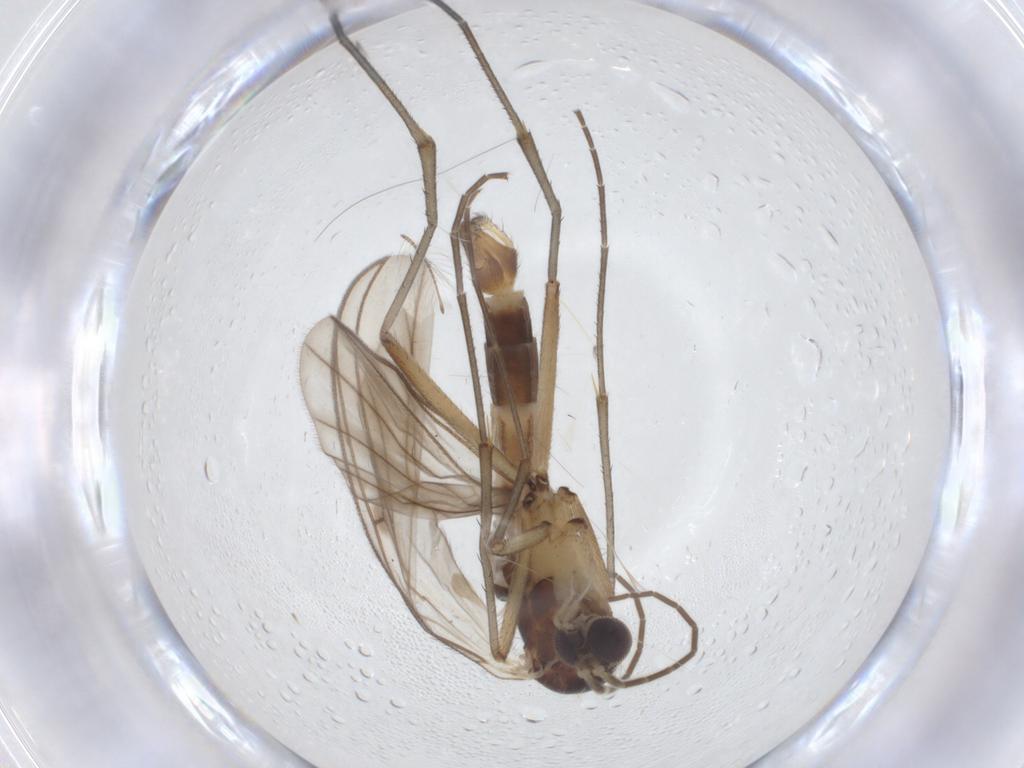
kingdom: Animalia
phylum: Arthropoda
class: Insecta
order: Diptera
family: Mycetophilidae
